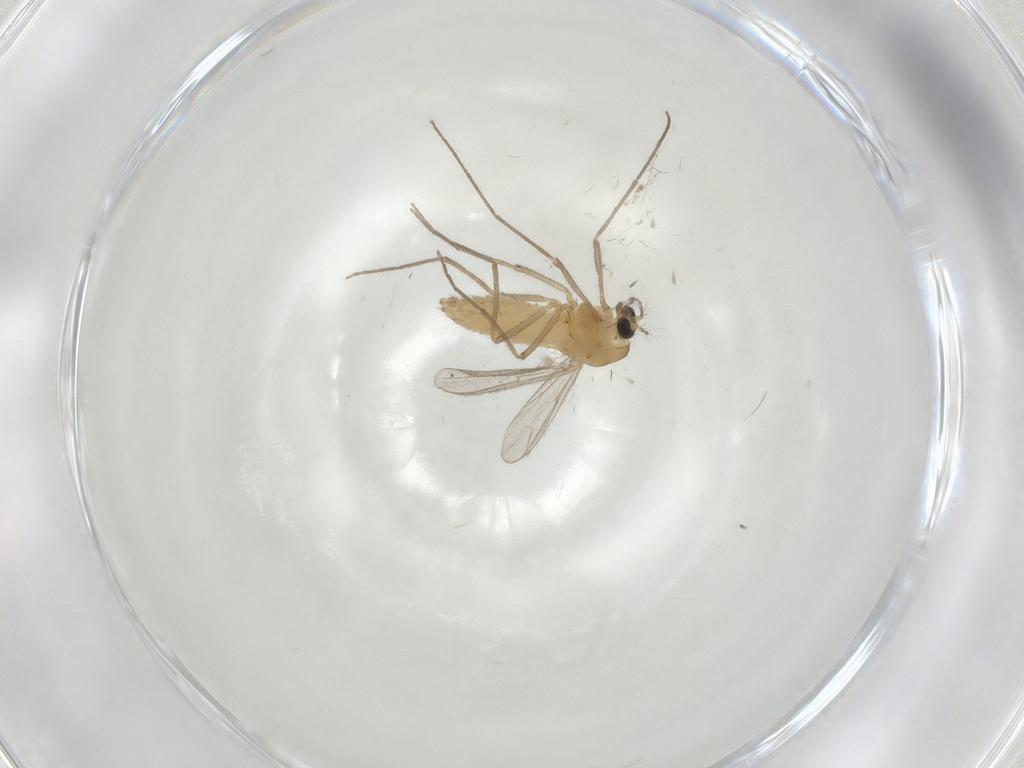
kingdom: Animalia
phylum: Arthropoda
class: Insecta
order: Diptera
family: Chironomidae
